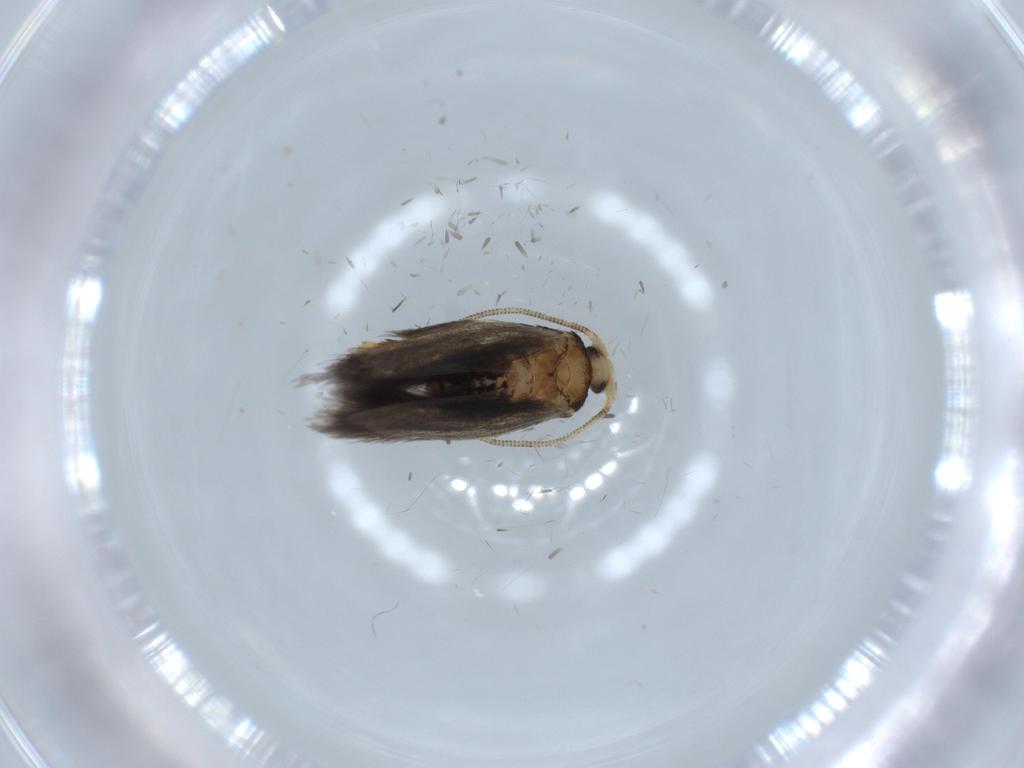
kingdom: Animalia
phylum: Arthropoda
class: Insecta
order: Lepidoptera
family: Nepticulidae
